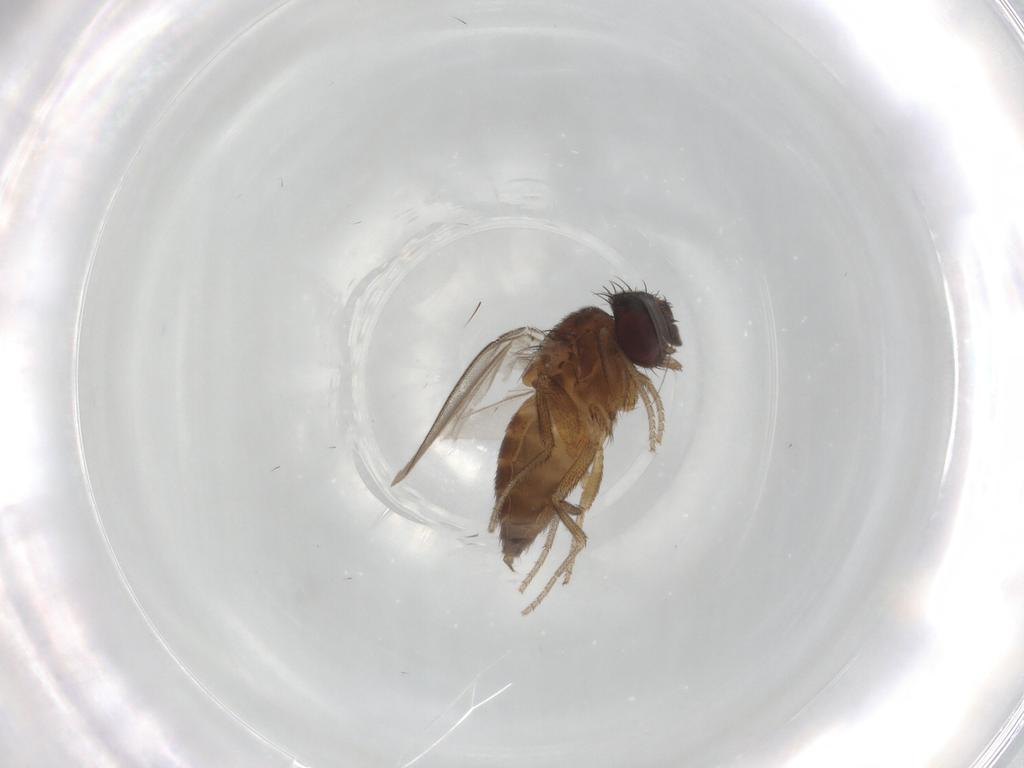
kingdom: Animalia
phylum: Arthropoda
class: Insecta
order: Diptera
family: Milichiidae
